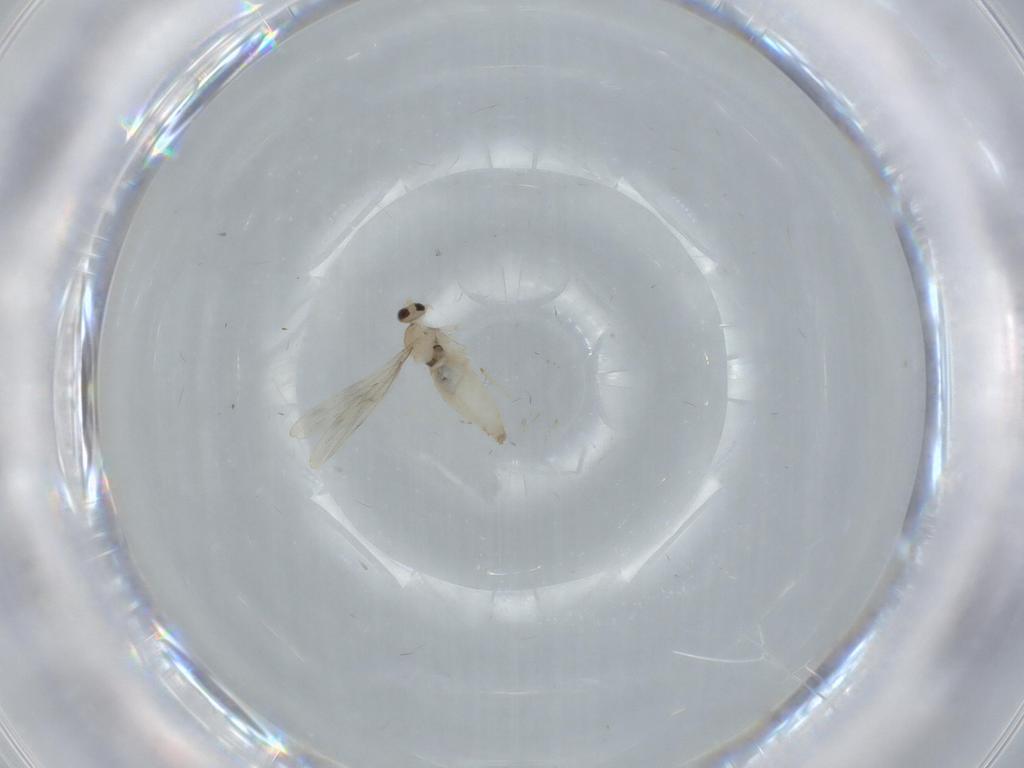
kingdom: Animalia
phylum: Arthropoda
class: Insecta
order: Diptera
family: Cecidomyiidae
